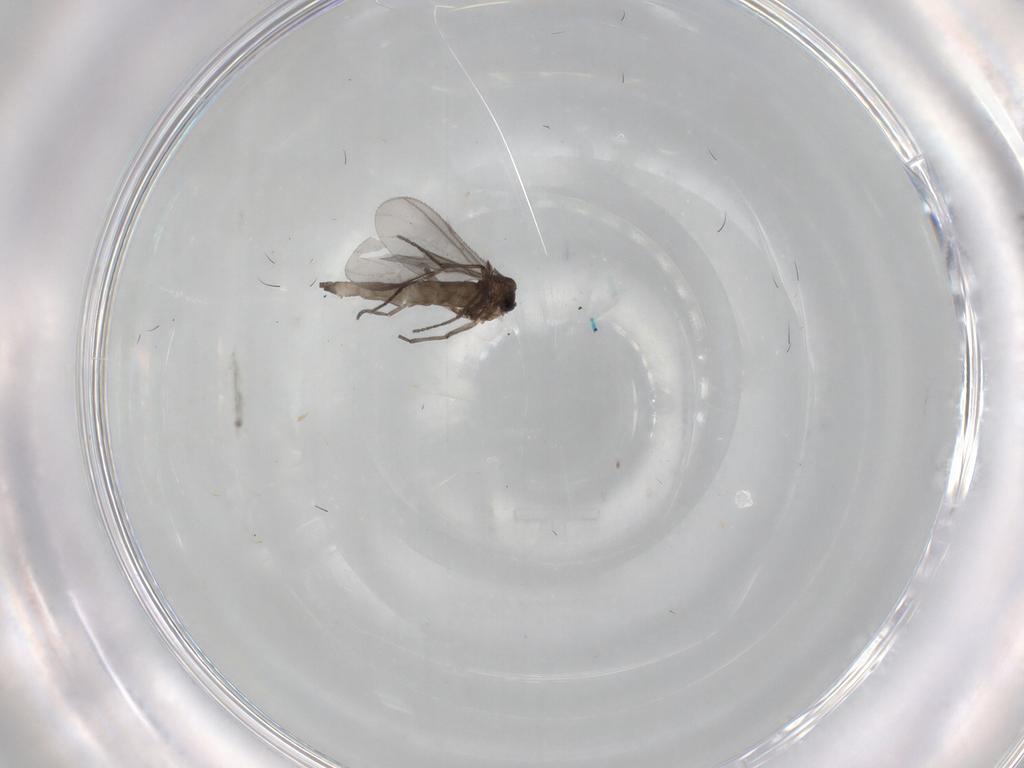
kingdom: Animalia
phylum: Arthropoda
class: Insecta
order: Diptera
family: Sciaridae
